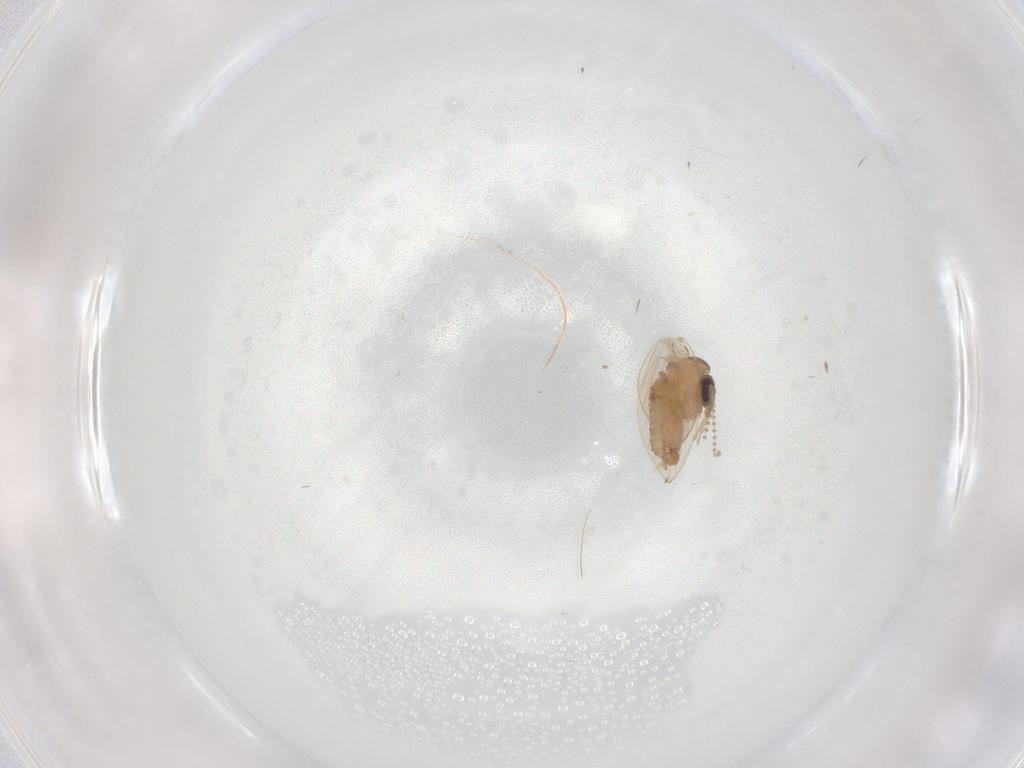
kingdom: Animalia
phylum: Arthropoda
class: Insecta
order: Diptera
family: Psychodidae
